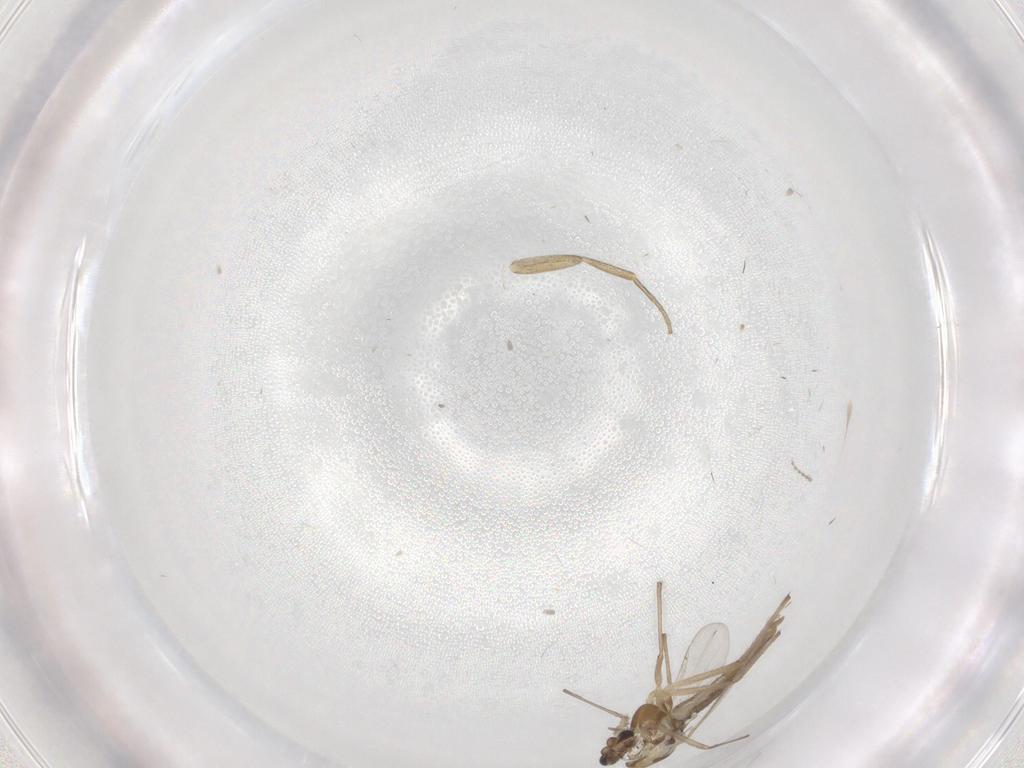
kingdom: Animalia
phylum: Arthropoda
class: Insecta
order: Diptera
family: Chironomidae
